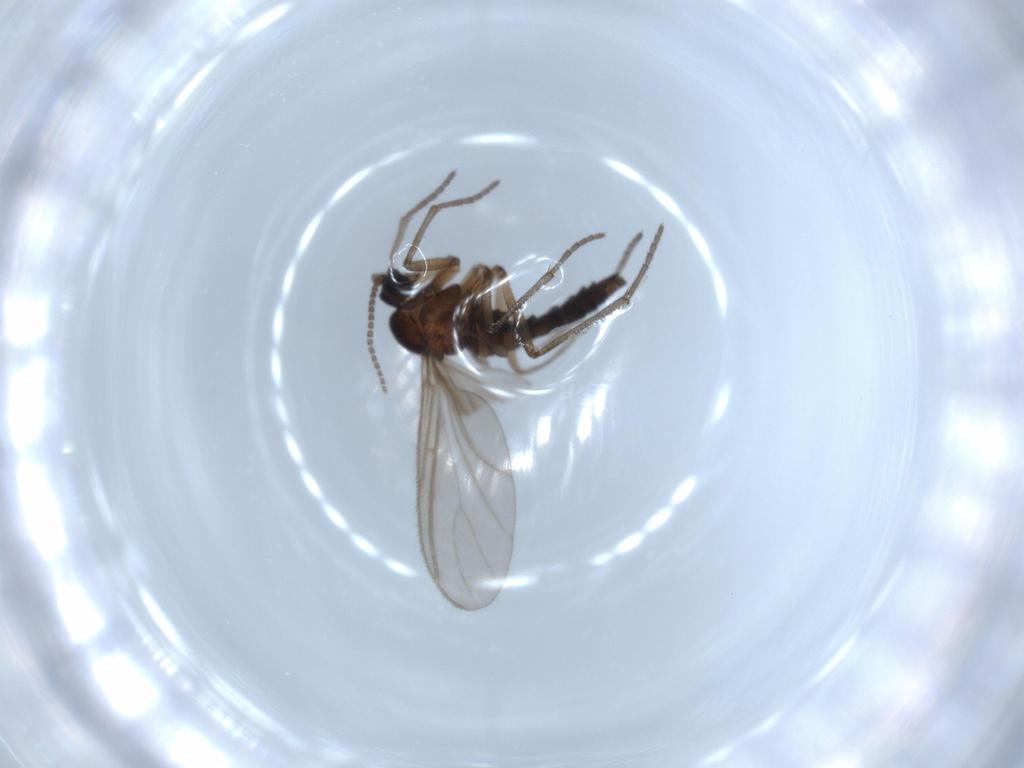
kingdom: Animalia
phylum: Arthropoda
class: Insecta
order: Diptera
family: Sciaridae
